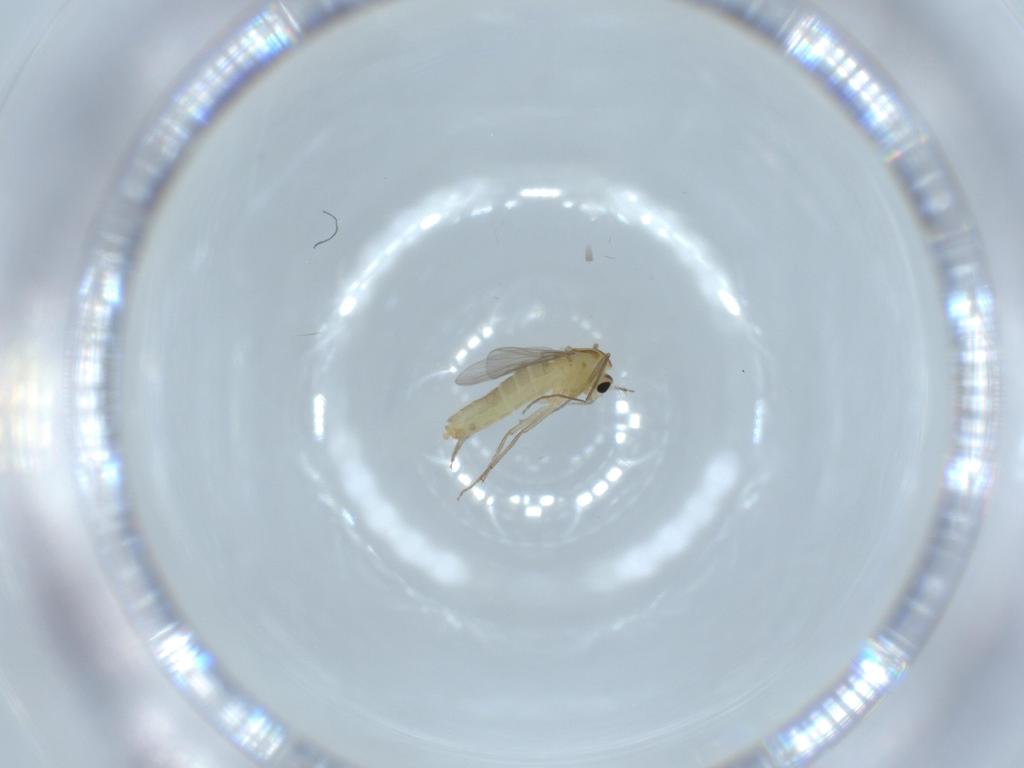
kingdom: Animalia
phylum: Arthropoda
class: Insecta
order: Diptera
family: Chironomidae
